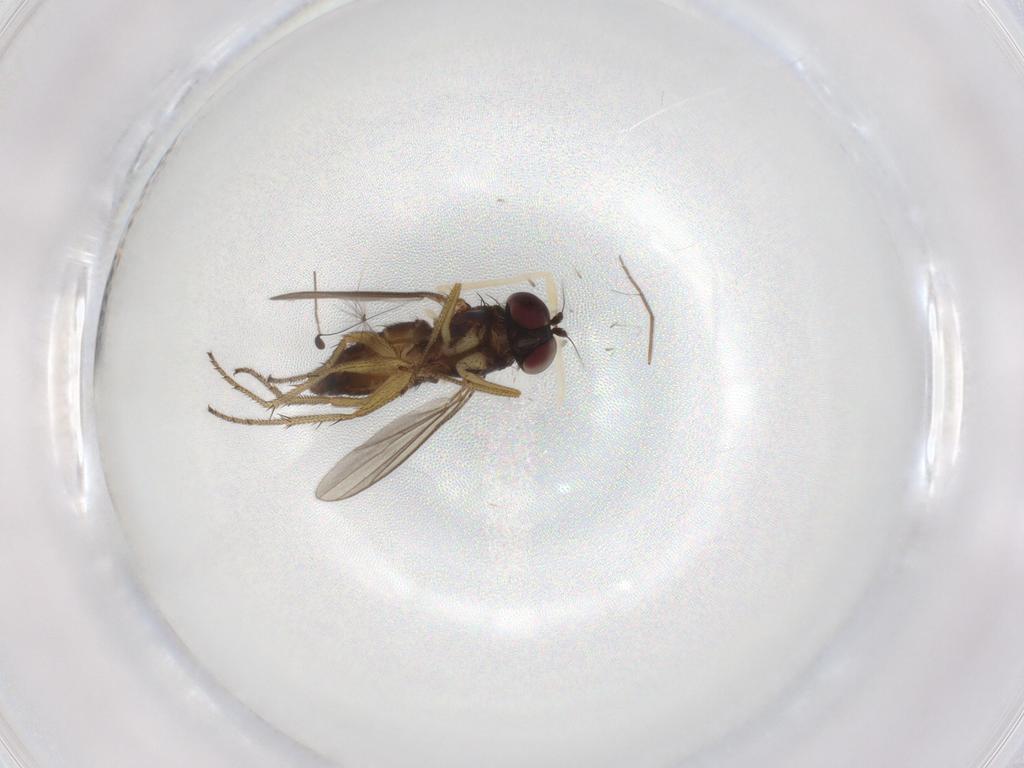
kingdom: Animalia
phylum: Arthropoda
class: Insecta
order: Diptera
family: Dolichopodidae
